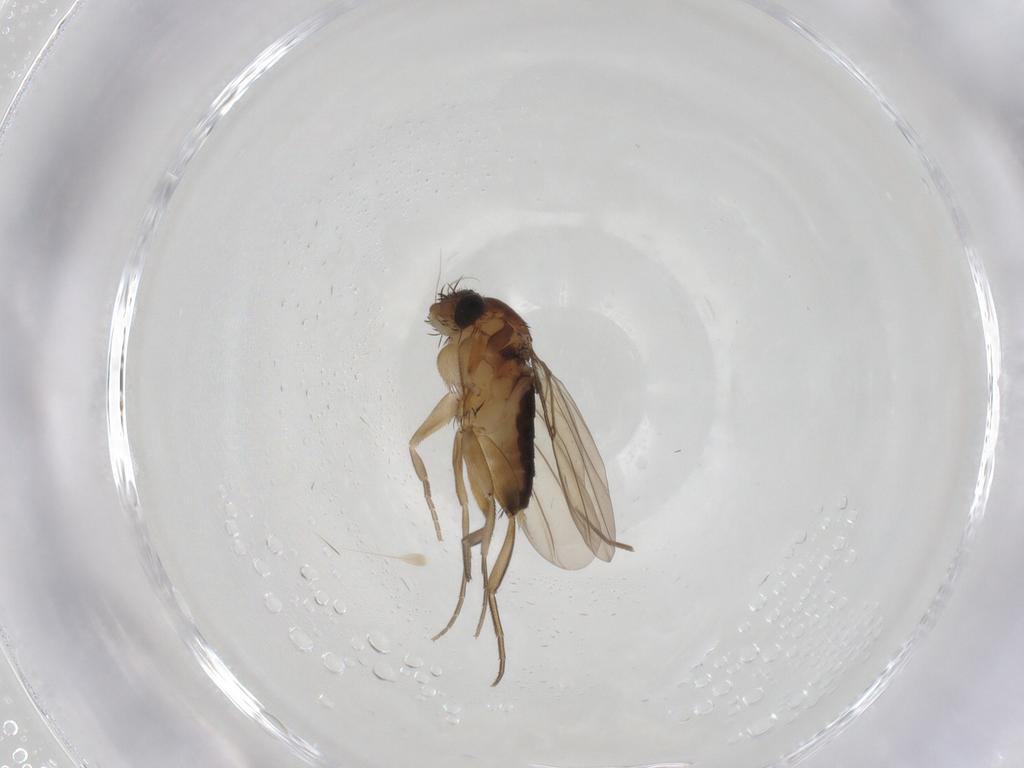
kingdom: Animalia
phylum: Arthropoda
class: Insecta
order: Diptera
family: Phoridae
